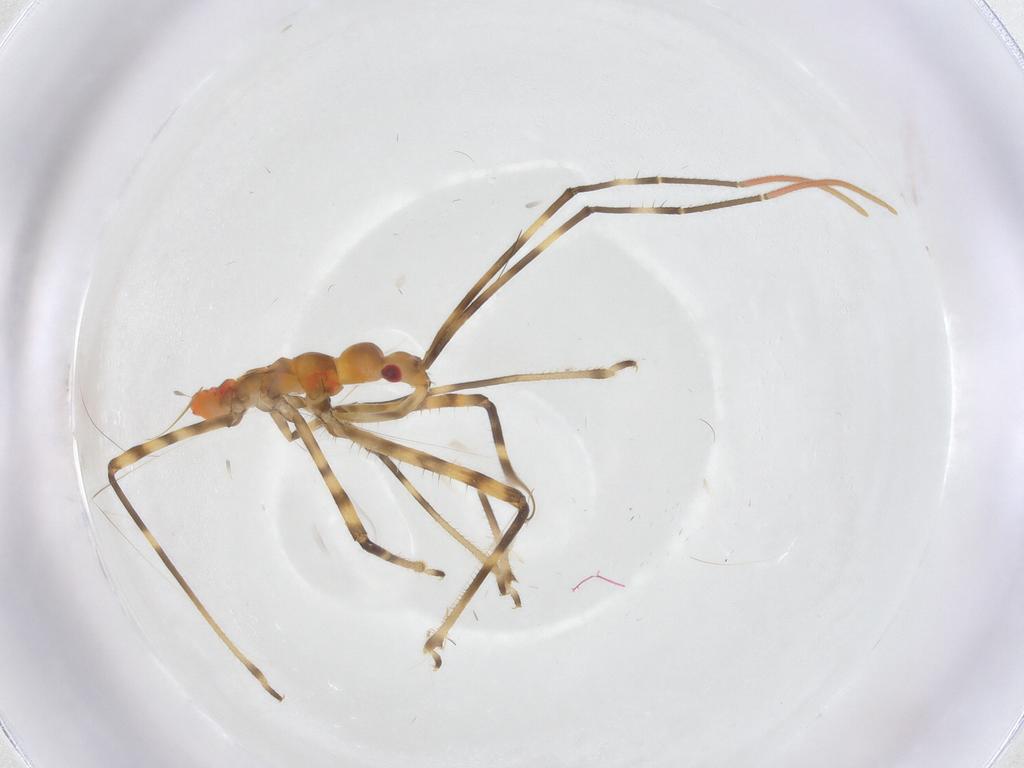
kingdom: Animalia
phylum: Arthropoda
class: Insecta
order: Hemiptera
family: Reduviidae
